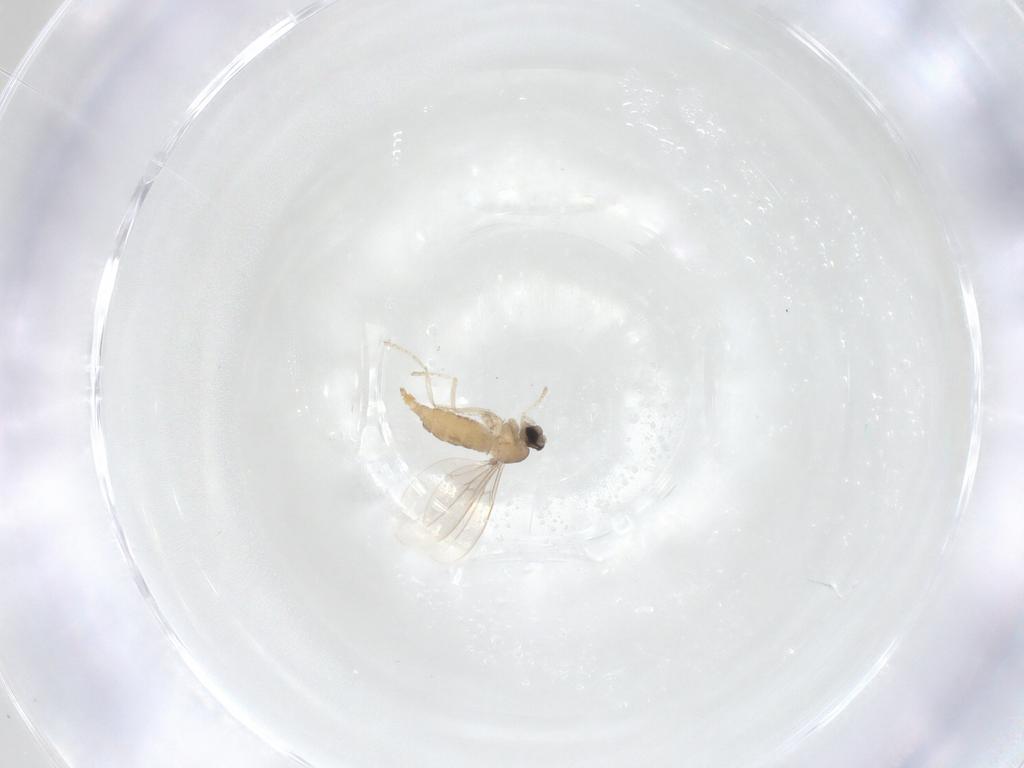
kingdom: Animalia
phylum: Arthropoda
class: Insecta
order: Diptera
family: Cecidomyiidae
